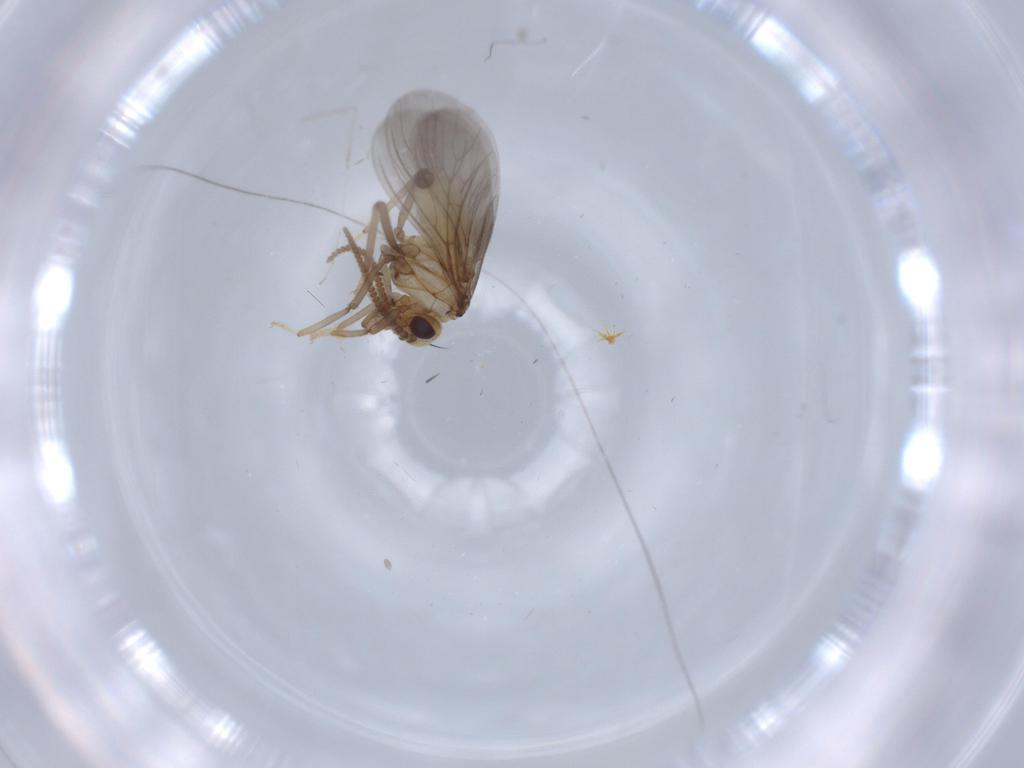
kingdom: Animalia
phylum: Arthropoda
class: Insecta
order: Neuroptera
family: Coniopterygidae
